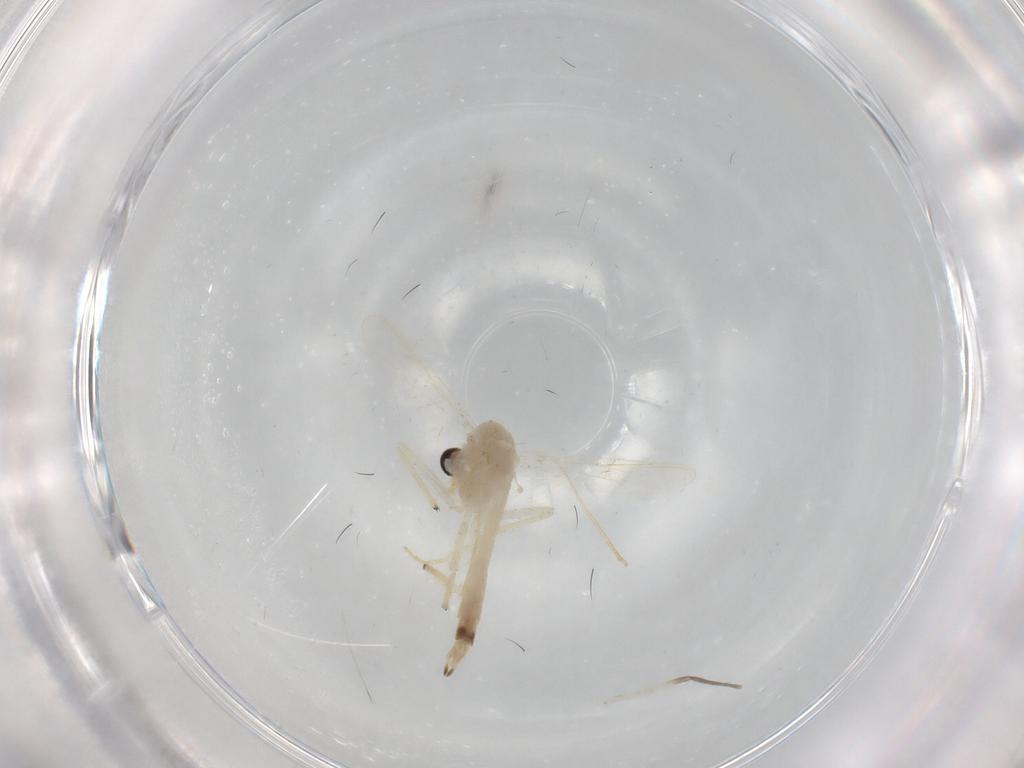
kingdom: Animalia
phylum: Arthropoda
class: Insecta
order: Diptera
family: Chironomidae
